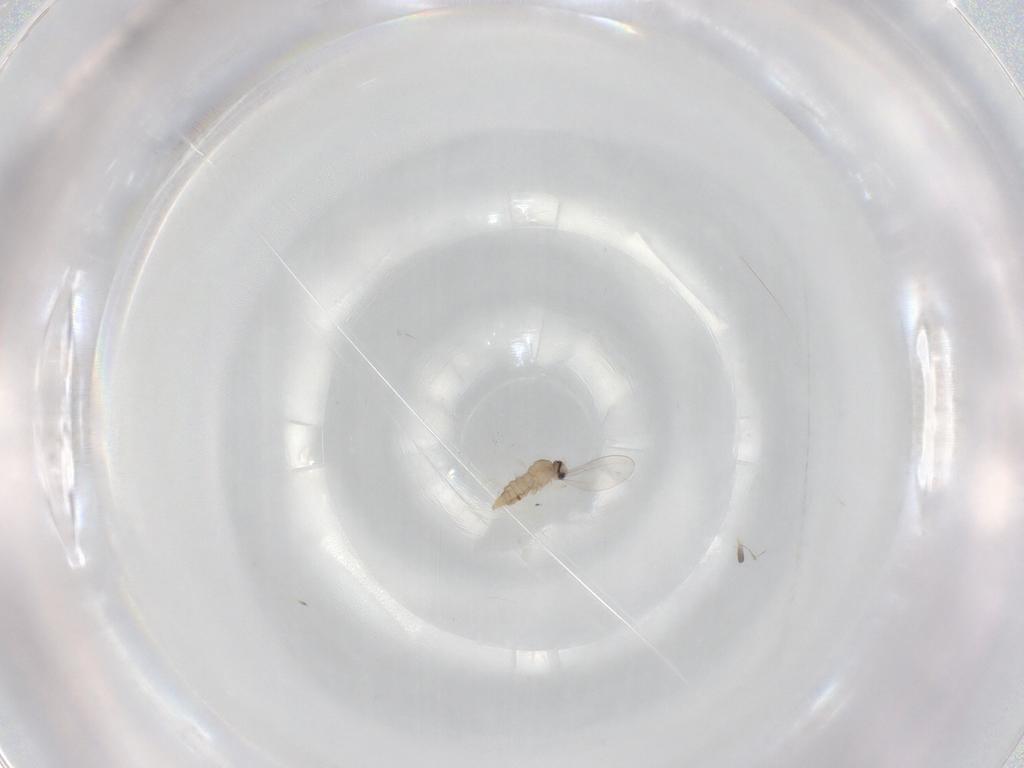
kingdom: Animalia
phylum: Arthropoda
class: Insecta
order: Diptera
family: Cecidomyiidae
